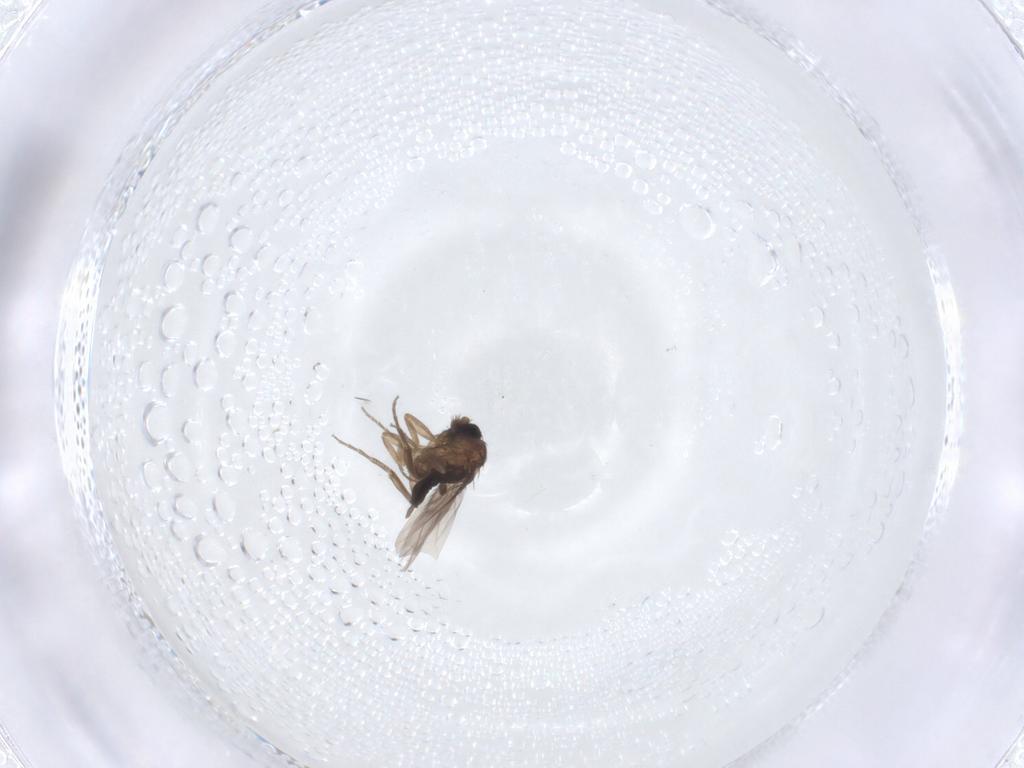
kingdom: Animalia
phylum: Arthropoda
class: Insecta
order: Diptera
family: Phoridae
